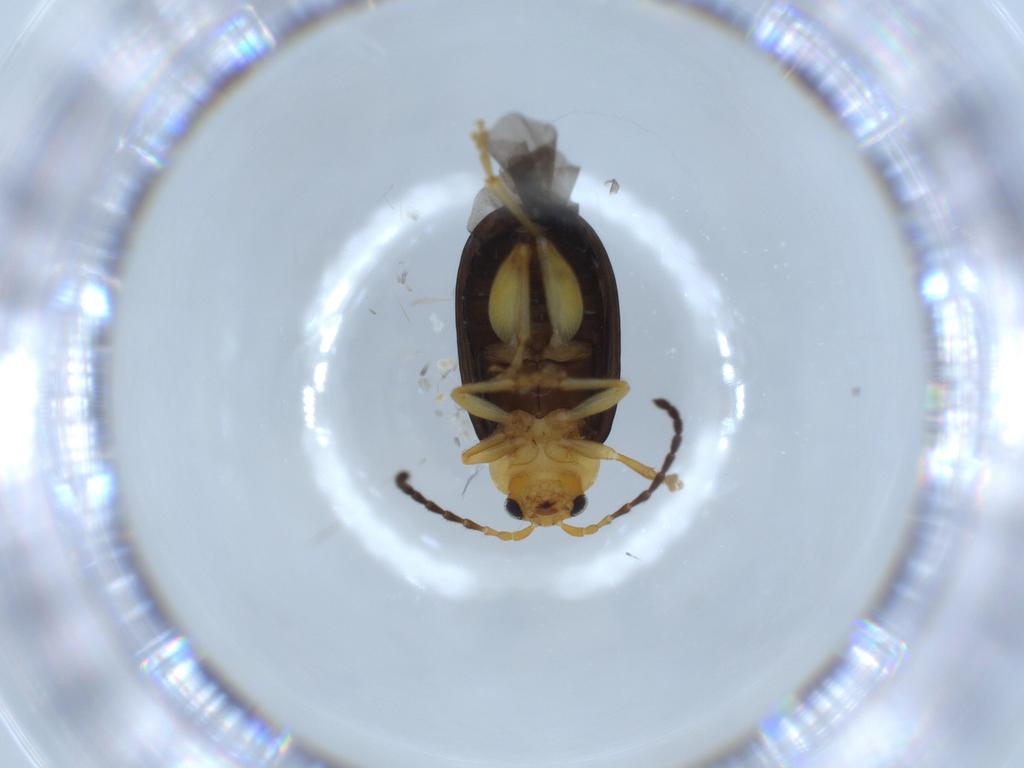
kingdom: Animalia
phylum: Arthropoda
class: Insecta
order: Coleoptera
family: Chrysomelidae
